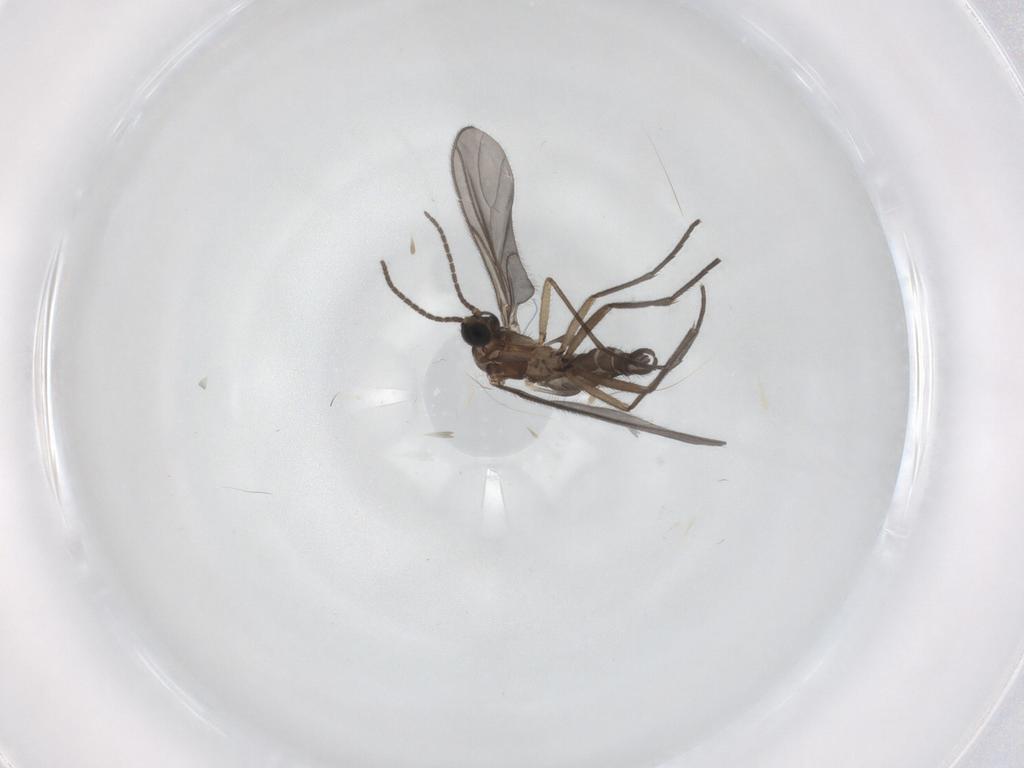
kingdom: Animalia
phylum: Arthropoda
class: Insecta
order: Diptera
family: Sciaridae
